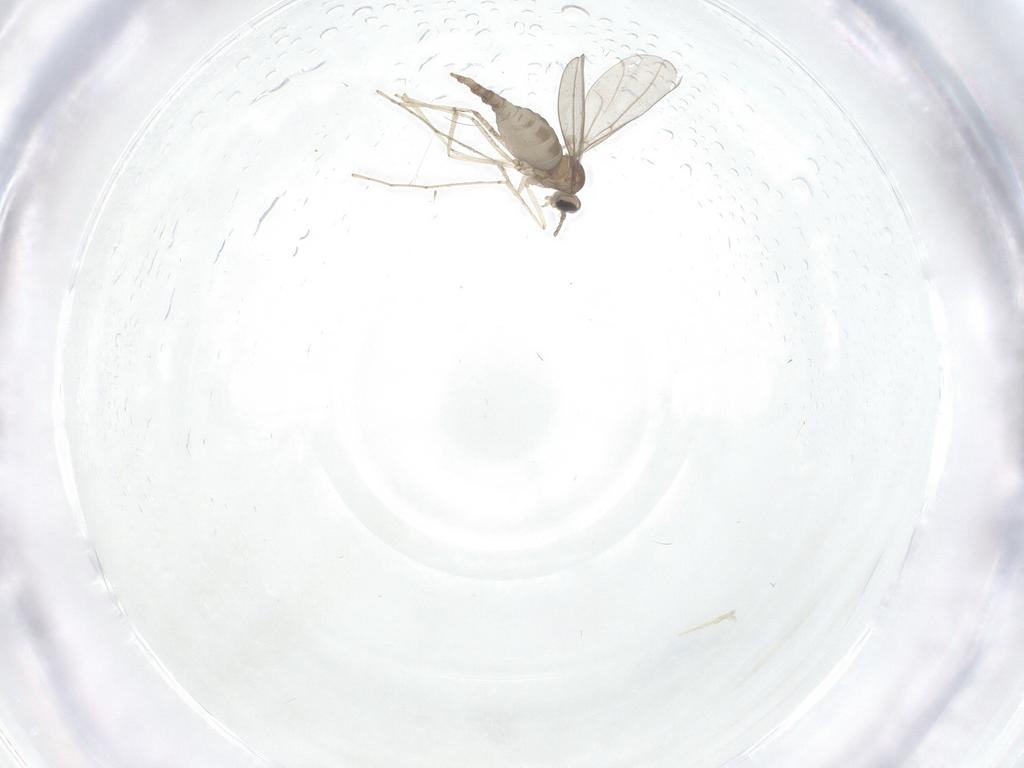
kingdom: Animalia
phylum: Arthropoda
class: Insecta
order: Diptera
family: Cecidomyiidae
